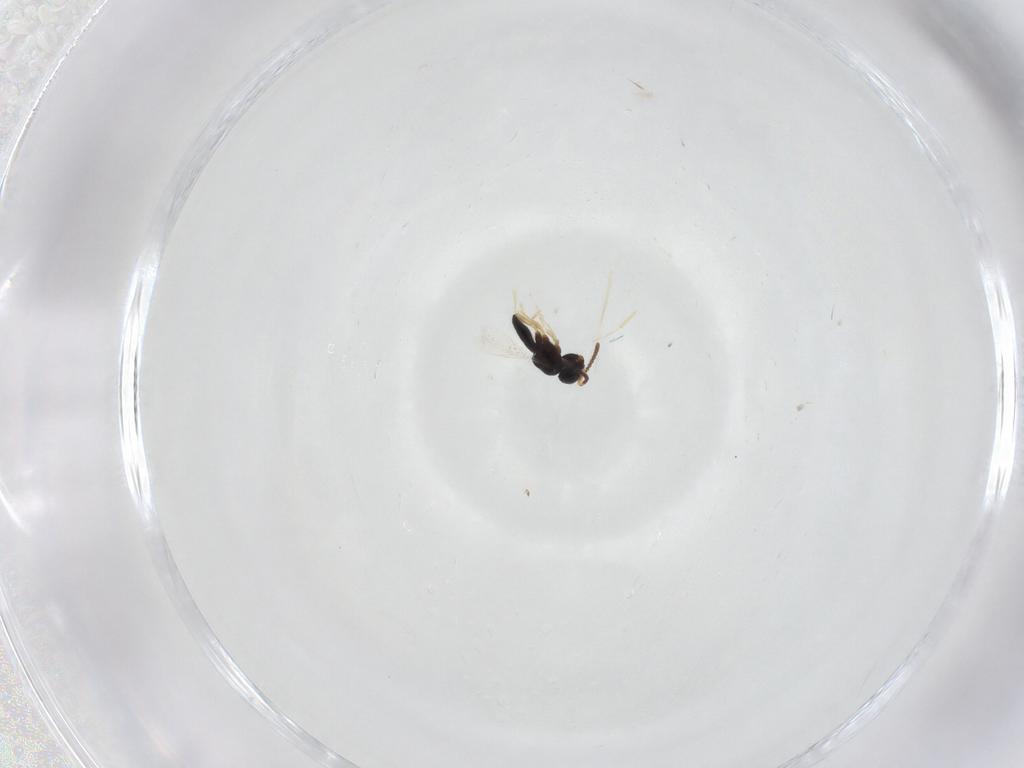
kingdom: Animalia
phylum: Arthropoda
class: Insecta
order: Hymenoptera
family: Scelionidae
